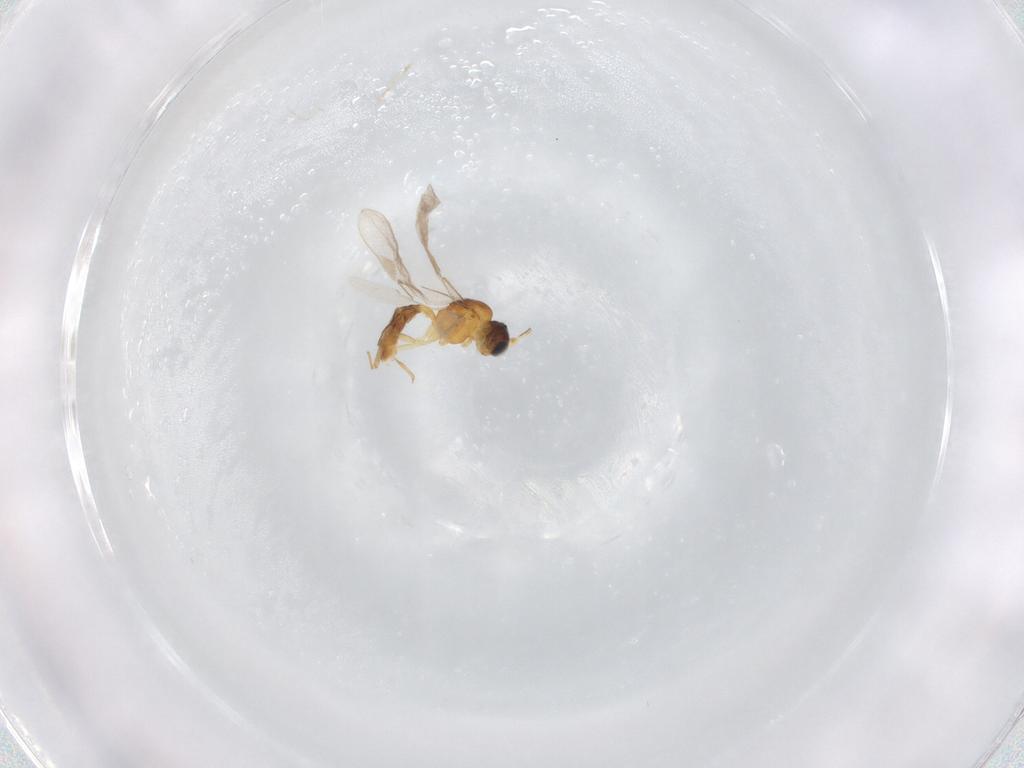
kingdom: Animalia
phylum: Arthropoda
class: Insecta
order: Hymenoptera
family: Braconidae
